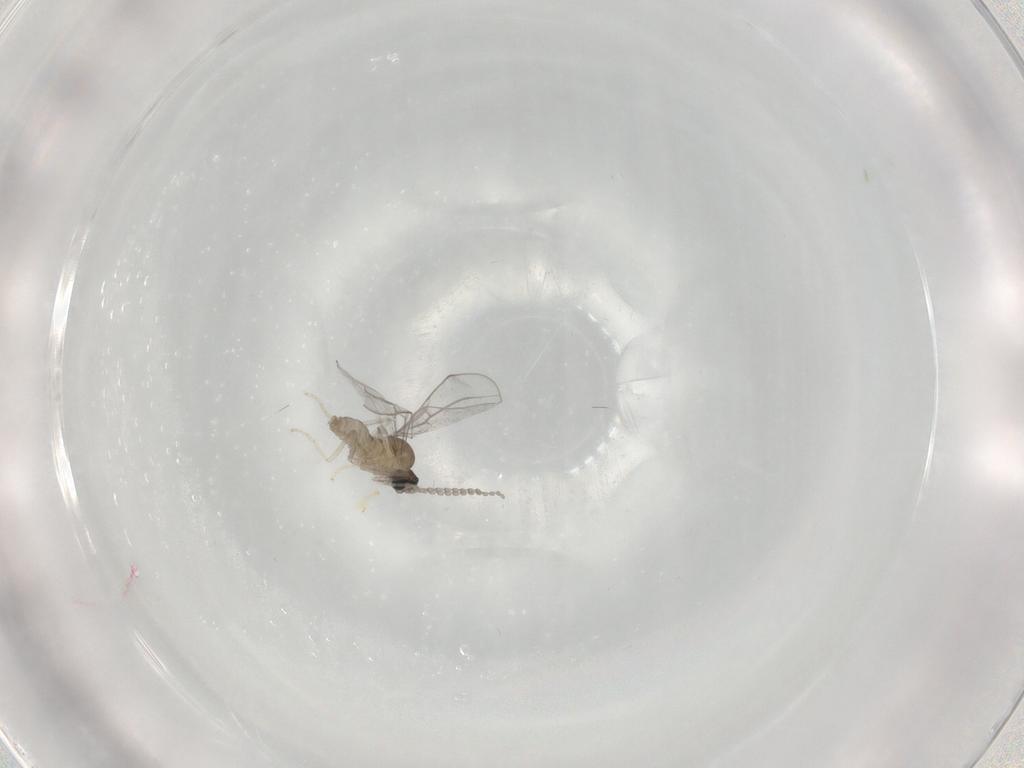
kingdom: Animalia
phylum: Arthropoda
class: Insecta
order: Diptera
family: Cecidomyiidae
